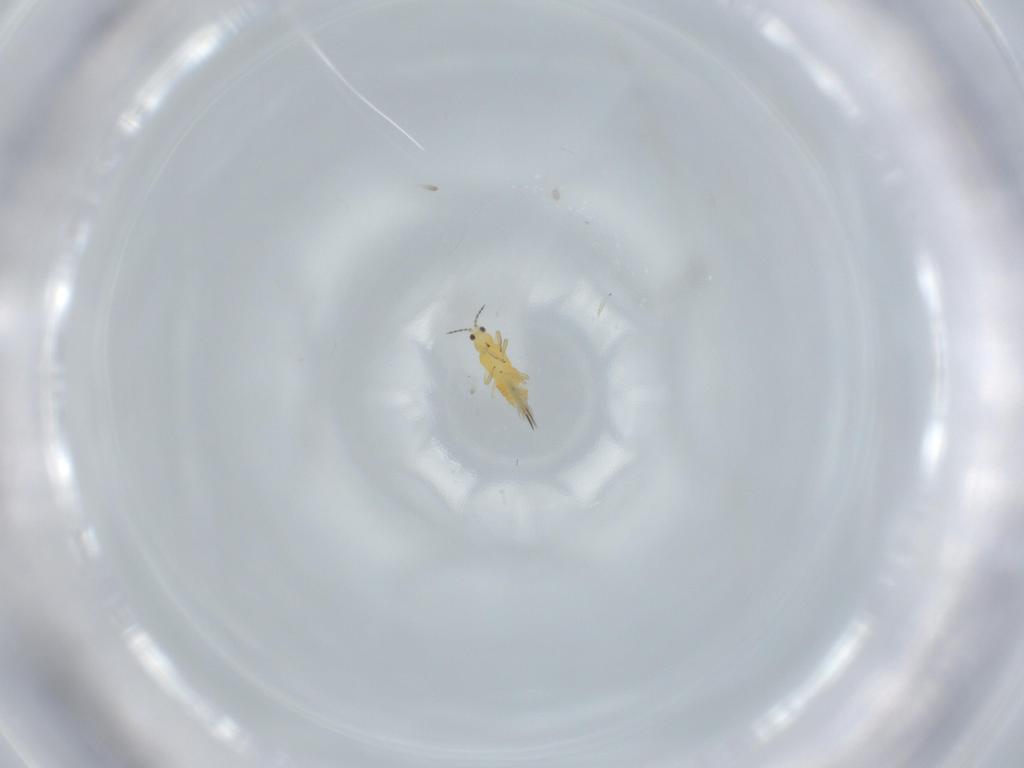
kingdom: Animalia
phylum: Arthropoda
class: Insecta
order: Thysanoptera
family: Thripidae
